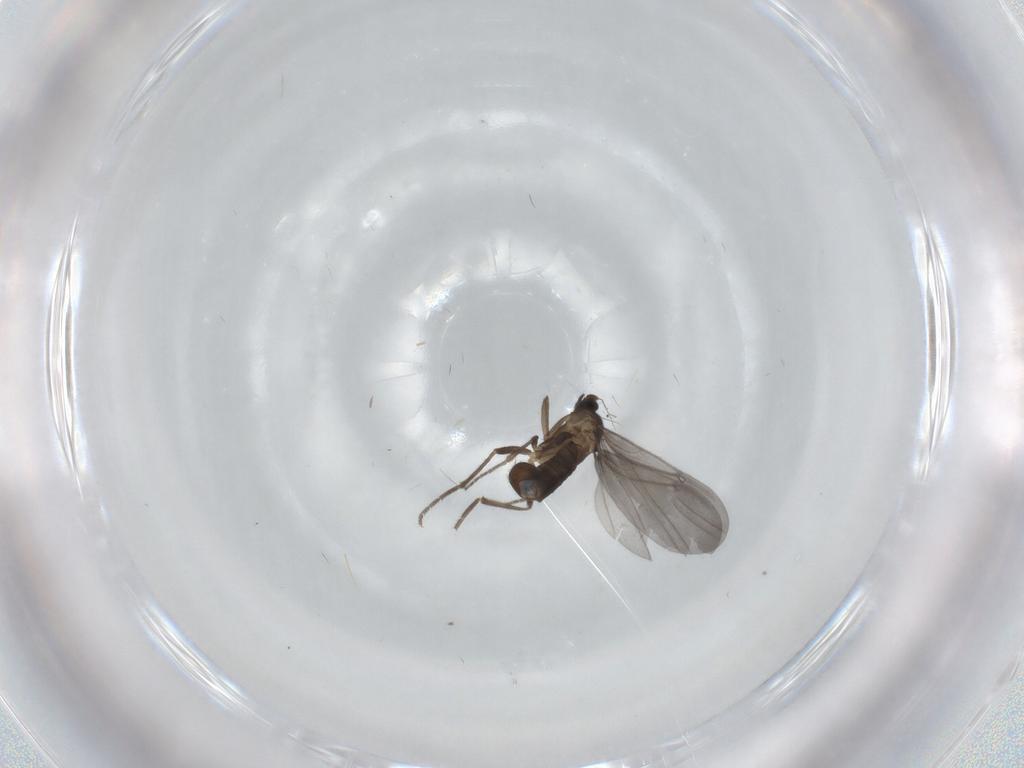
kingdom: Animalia
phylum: Arthropoda
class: Insecta
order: Diptera
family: Phoridae
